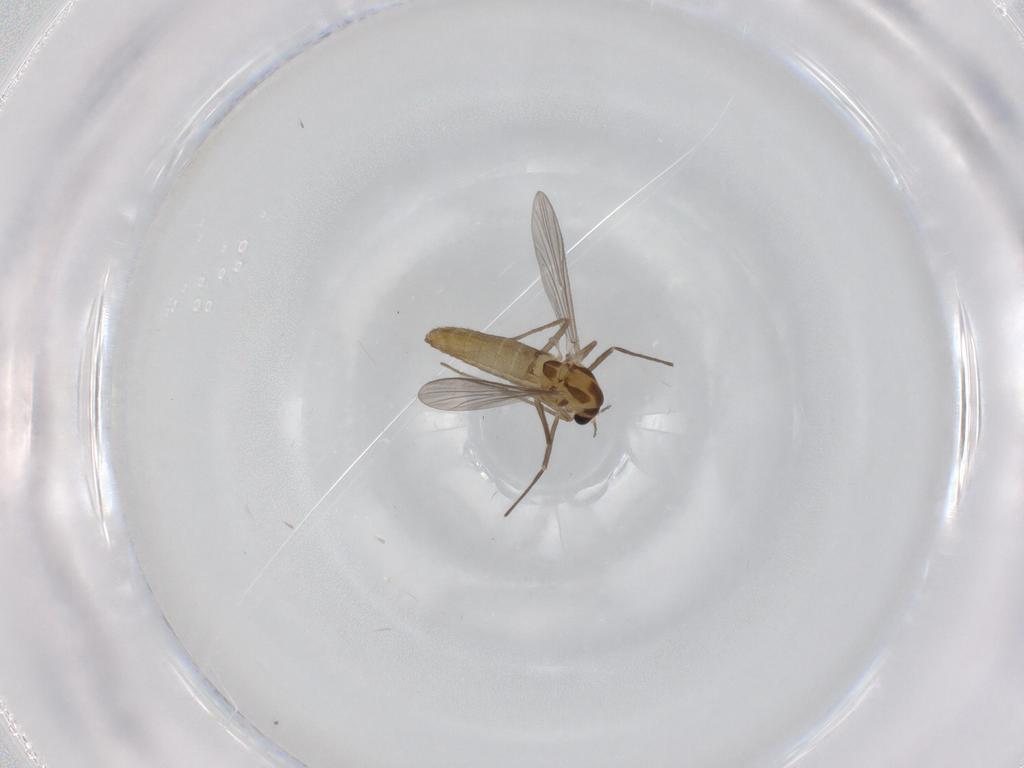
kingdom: Animalia
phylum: Arthropoda
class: Insecta
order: Diptera
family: Chironomidae
